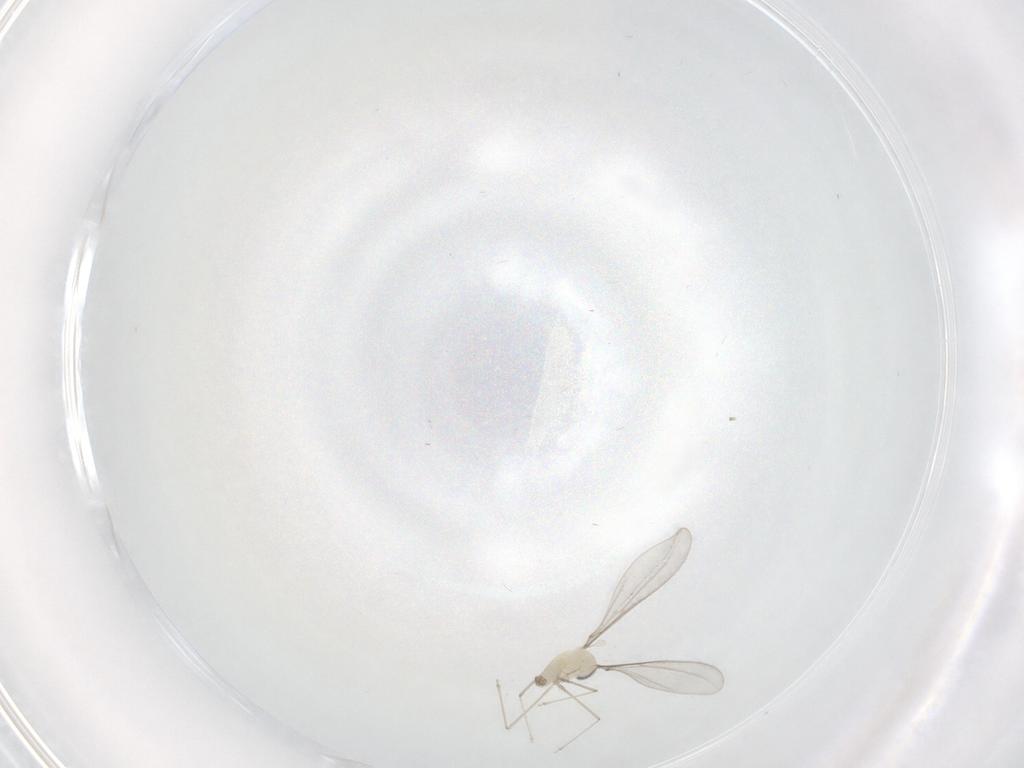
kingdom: Animalia
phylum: Arthropoda
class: Insecta
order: Diptera
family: Cecidomyiidae
